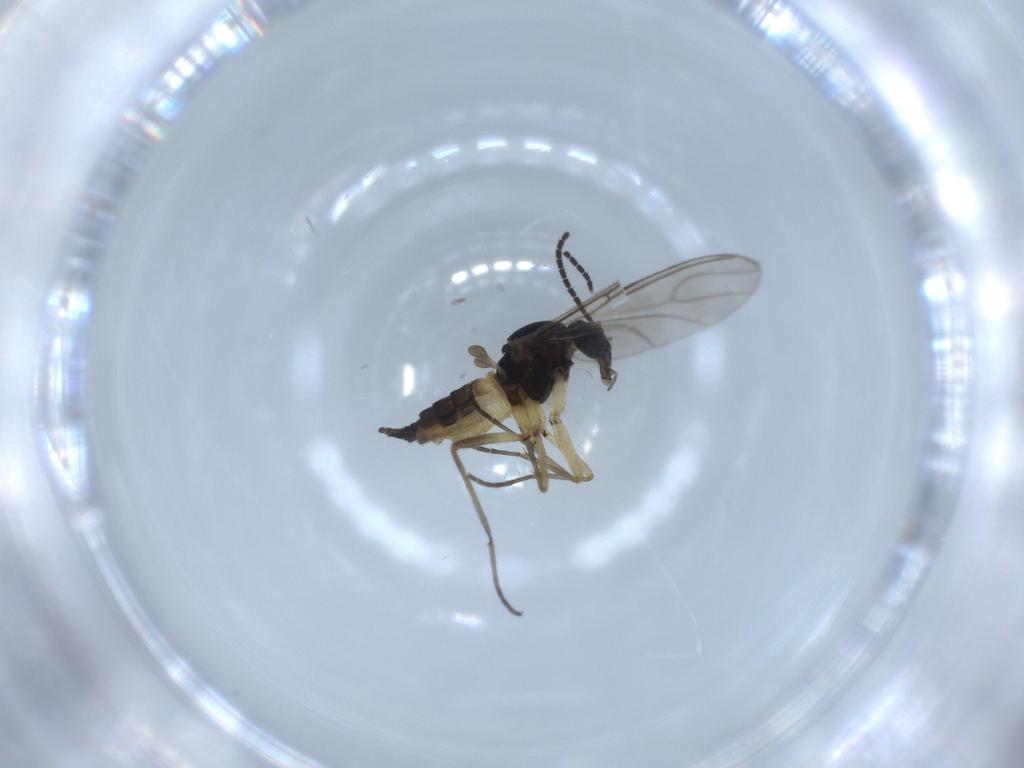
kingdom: Animalia
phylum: Arthropoda
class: Insecta
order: Diptera
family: Sciaridae
